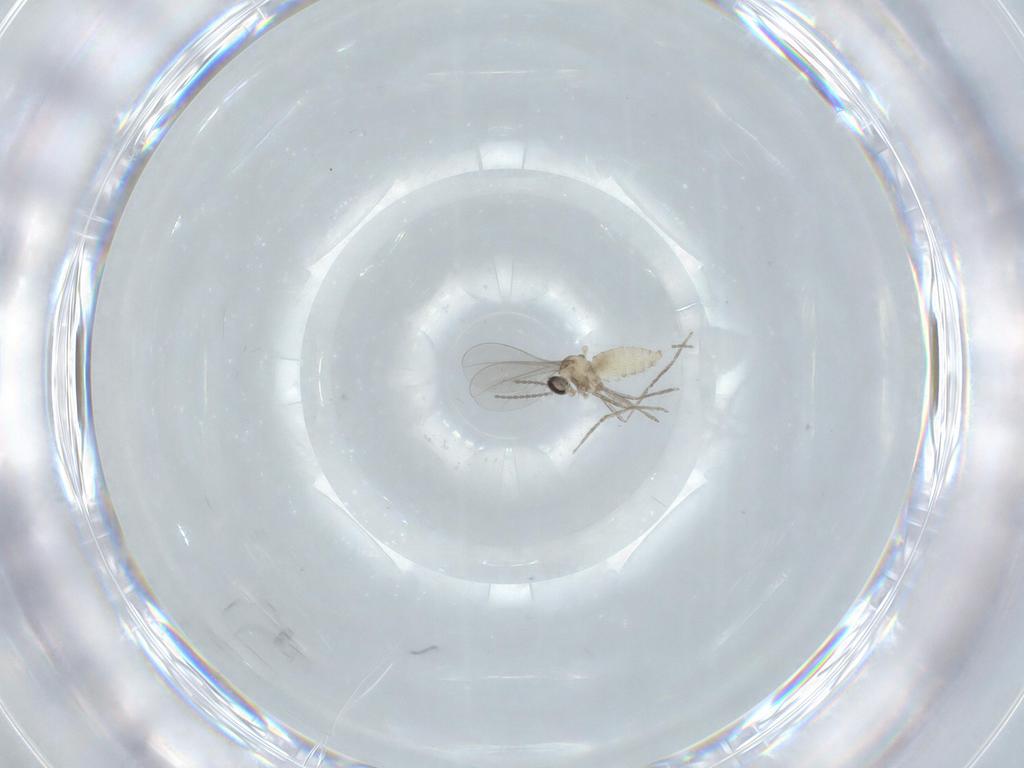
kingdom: Animalia
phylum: Arthropoda
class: Insecta
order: Diptera
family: Cecidomyiidae
